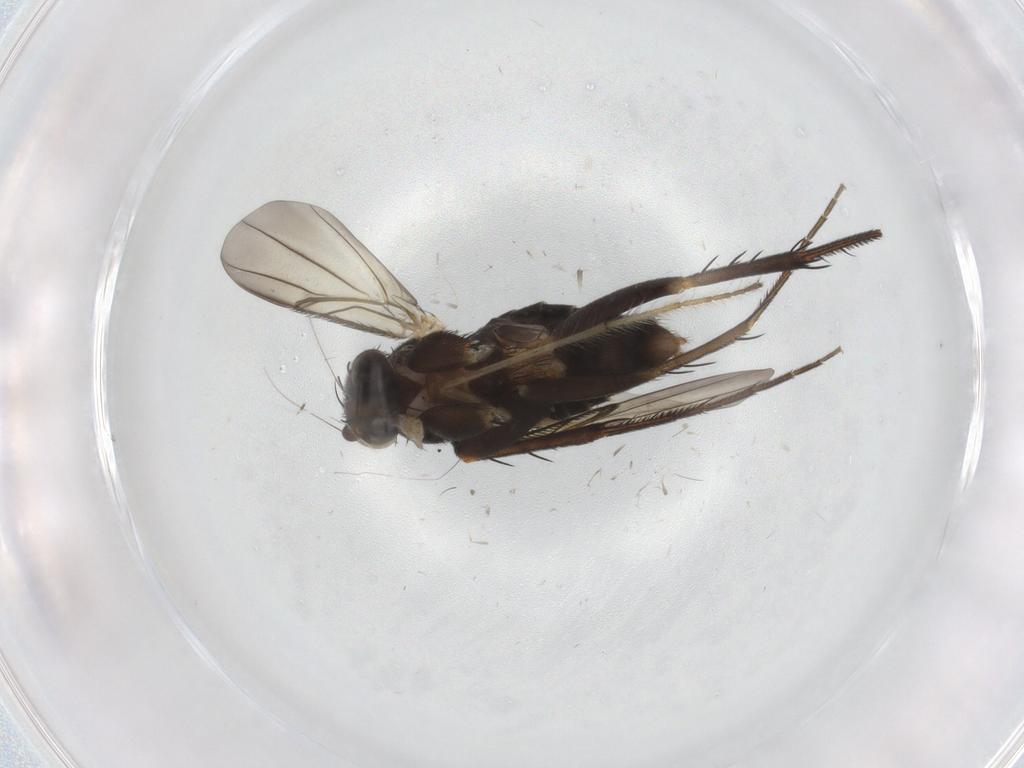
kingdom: Animalia
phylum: Arthropoda
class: Insecta
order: Diptera
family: Phoridae
